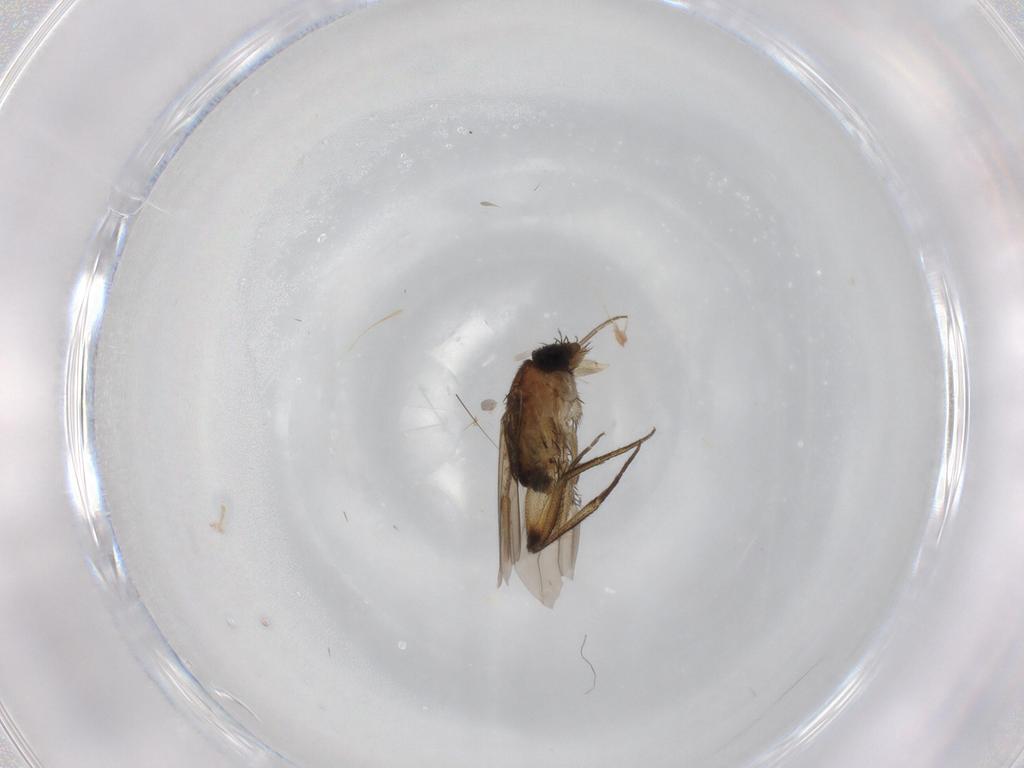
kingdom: Animalia
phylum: Arthropoda
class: Insecta
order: Diptera
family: Phoridae
